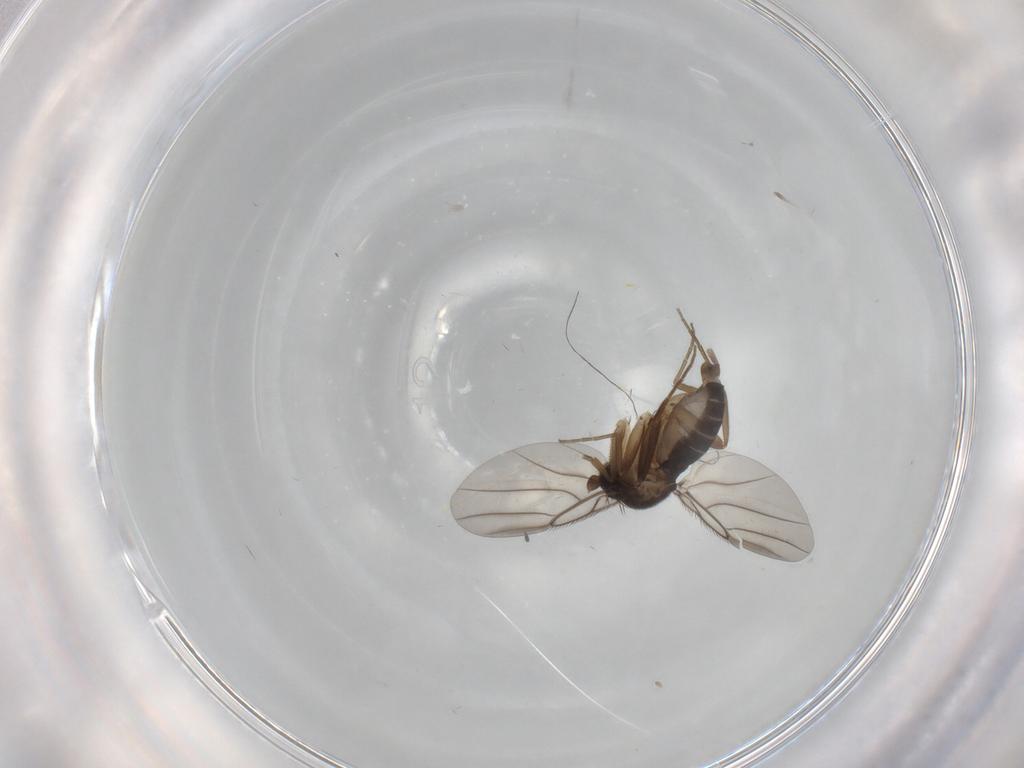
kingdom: Animalia
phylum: Arthropoda
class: Insecta
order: Diptera
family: Phoridae
